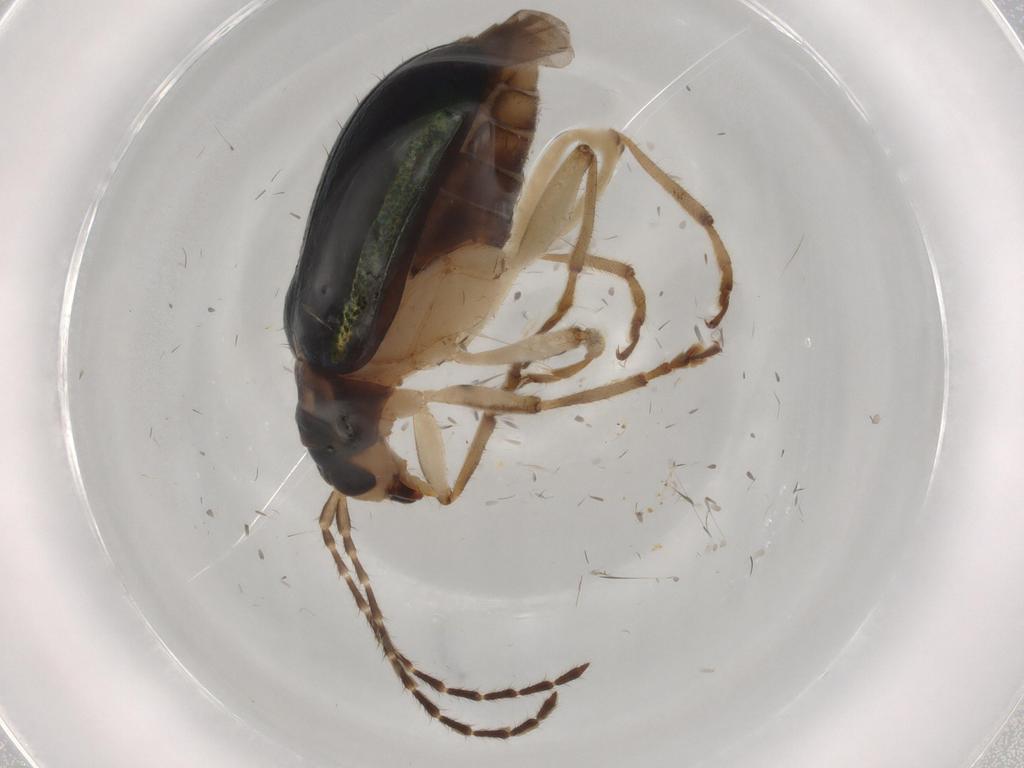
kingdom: Animalia
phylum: Arthropoda
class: Insecta
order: Coleoptera
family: Chrysomelidae
